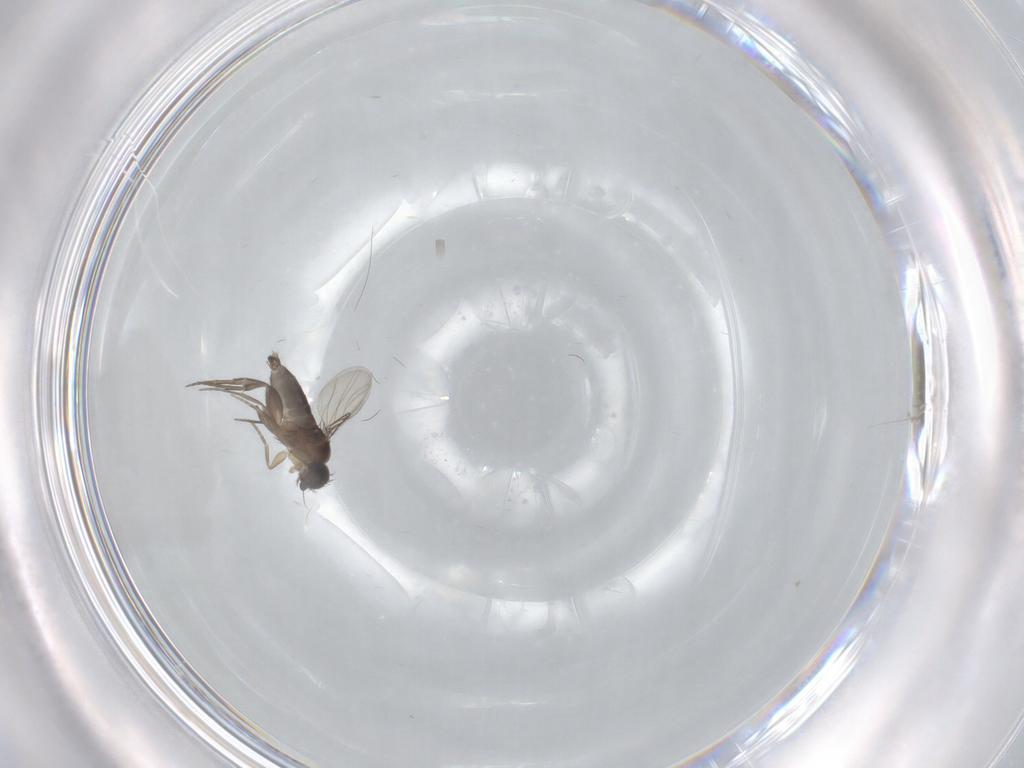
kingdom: Animalia
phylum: Arthropoda
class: Insecta
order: Diptera
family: Phoridae
